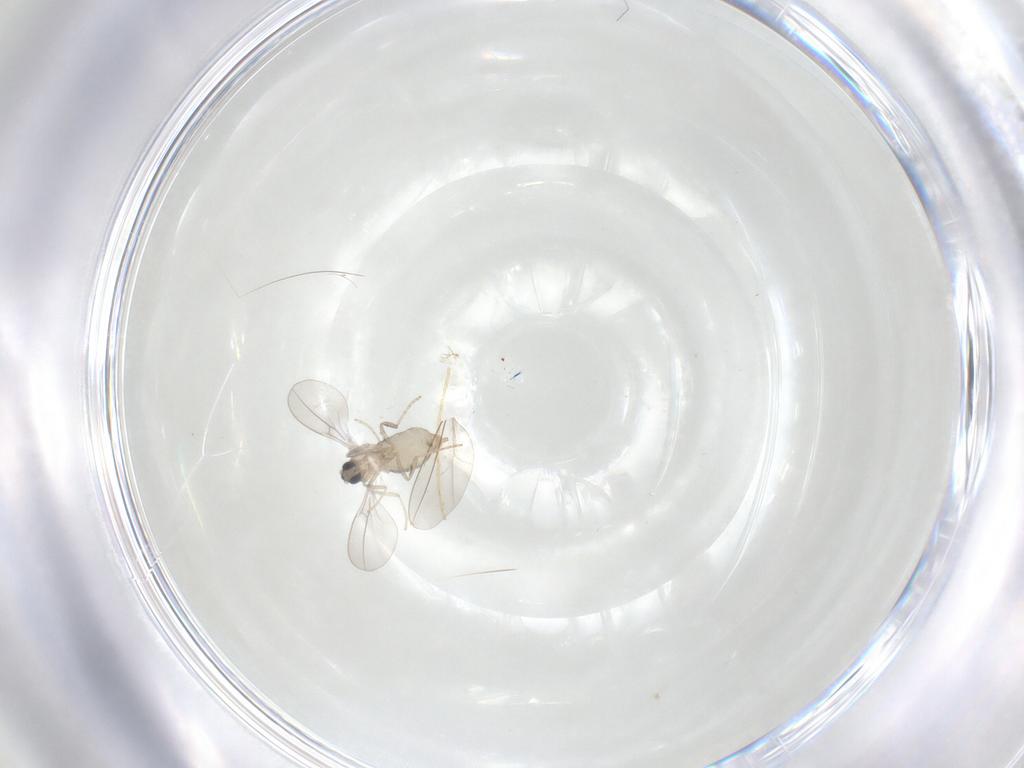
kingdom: Animalia
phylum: Arthropoda
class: Insecta
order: Diptera
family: Cecidomyiidae
